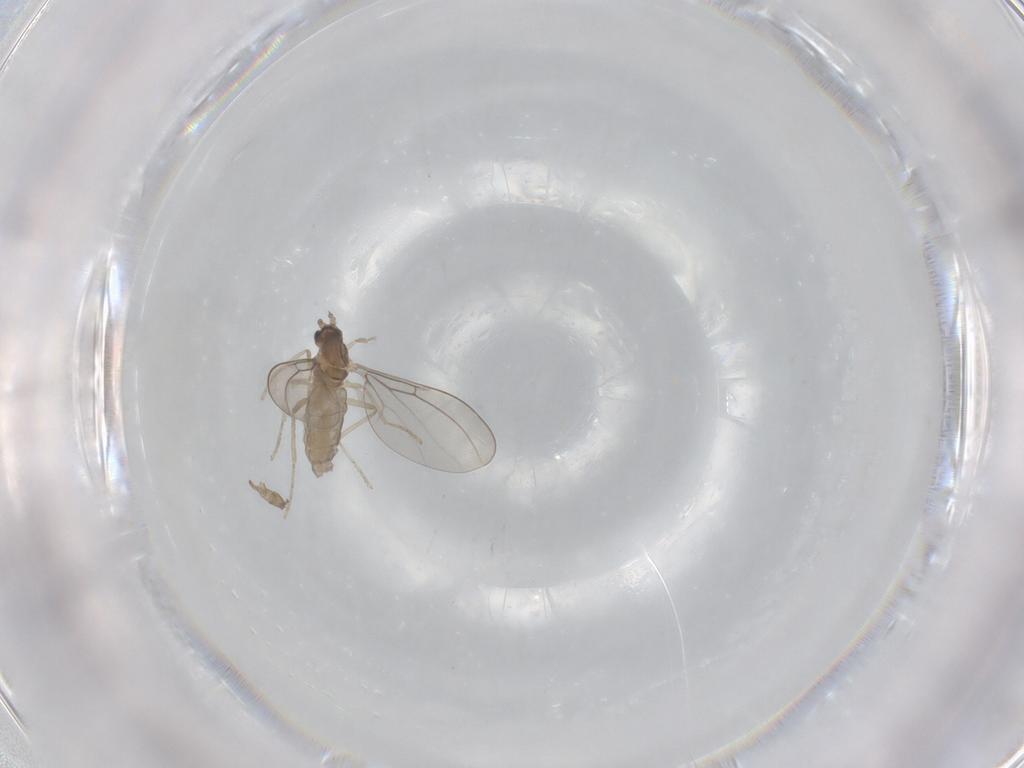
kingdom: Animalia
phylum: Arthropoda
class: Insecta
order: Diptera
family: Cecidomyiidae
